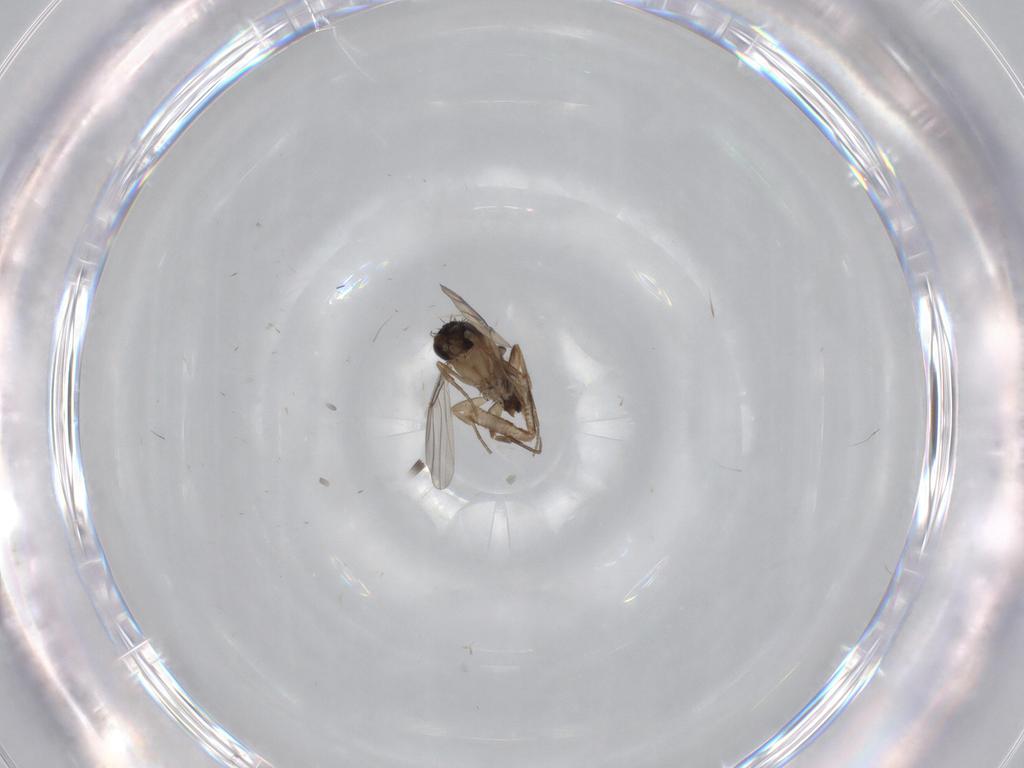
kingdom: Animalia
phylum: Arthropoda
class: Insecta
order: Diptera
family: Phoridae
